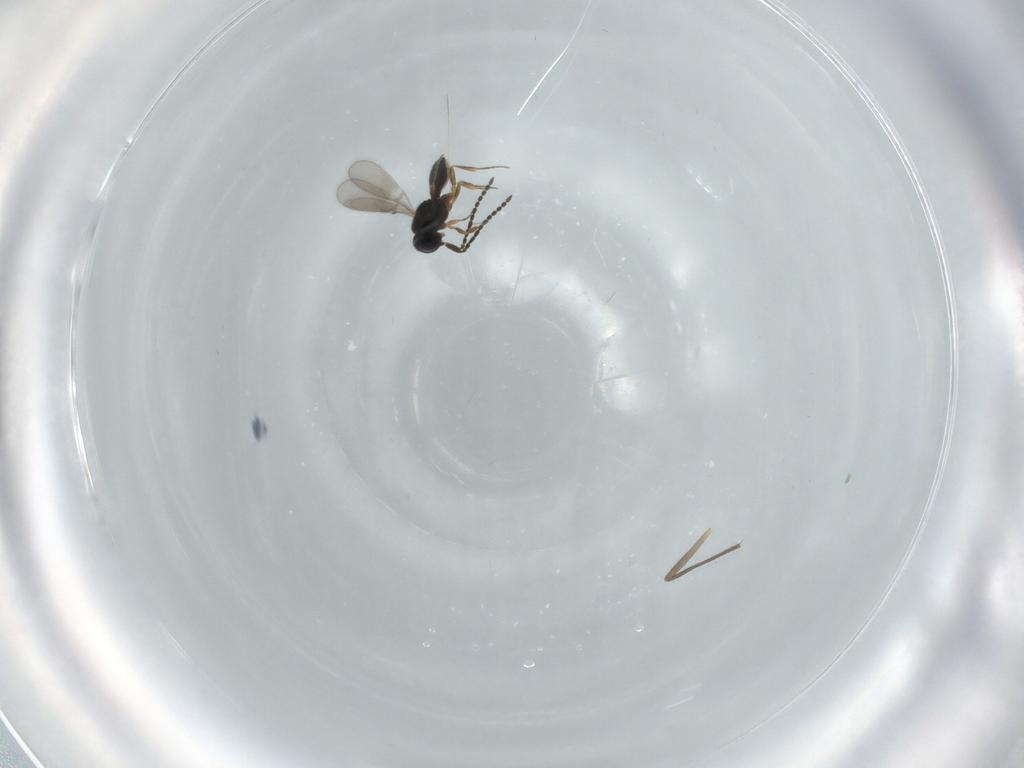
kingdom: Animalia
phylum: Arthropoda
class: Insecta
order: Hymenoptera
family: Scelionidae
